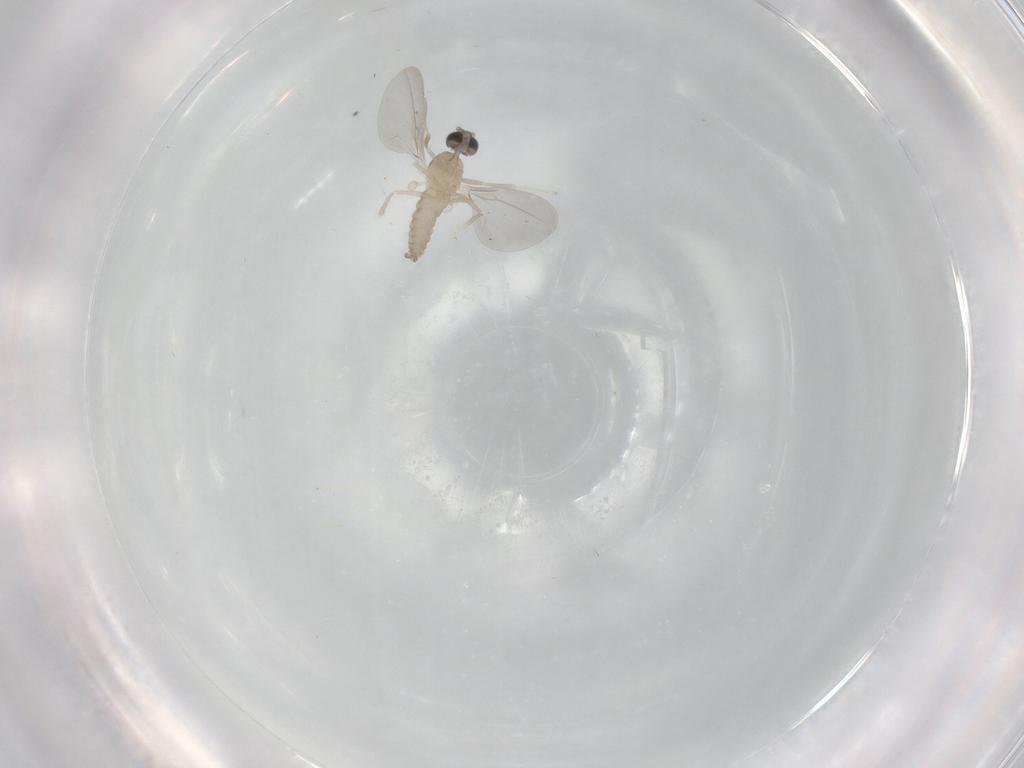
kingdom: Animalia
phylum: Arthropoda
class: Insecta
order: Diptera
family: Cecidomyiidae
